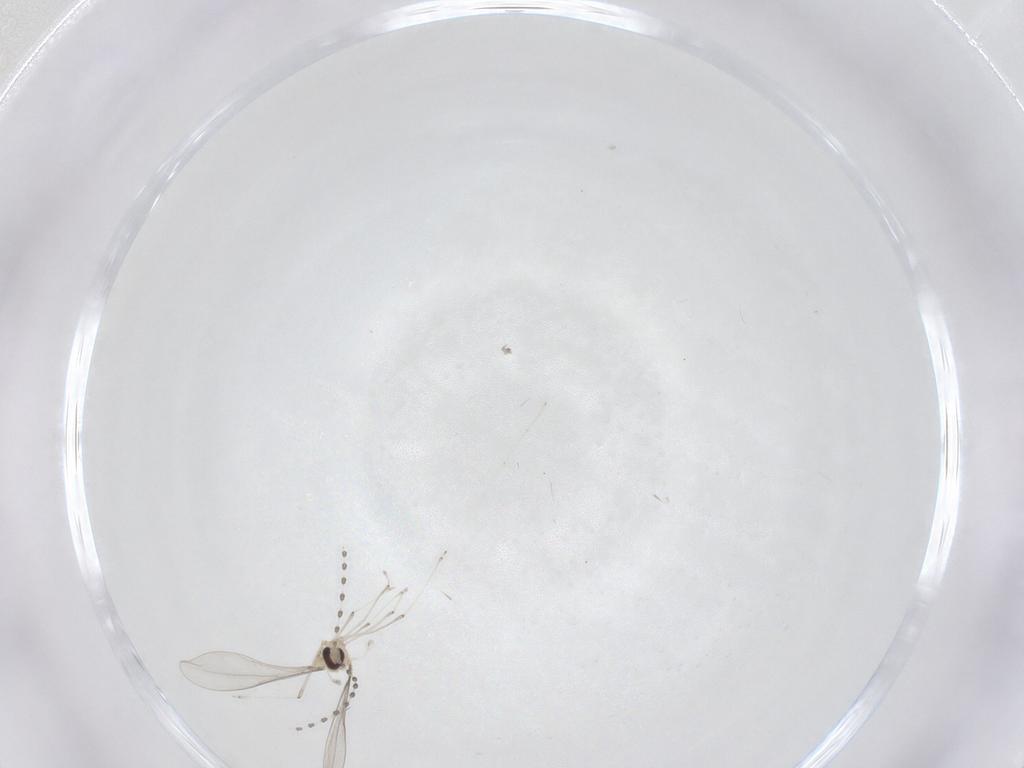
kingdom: Animalia
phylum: Arthropoda
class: Insecta
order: Diptera
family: Cecidomyiidae
